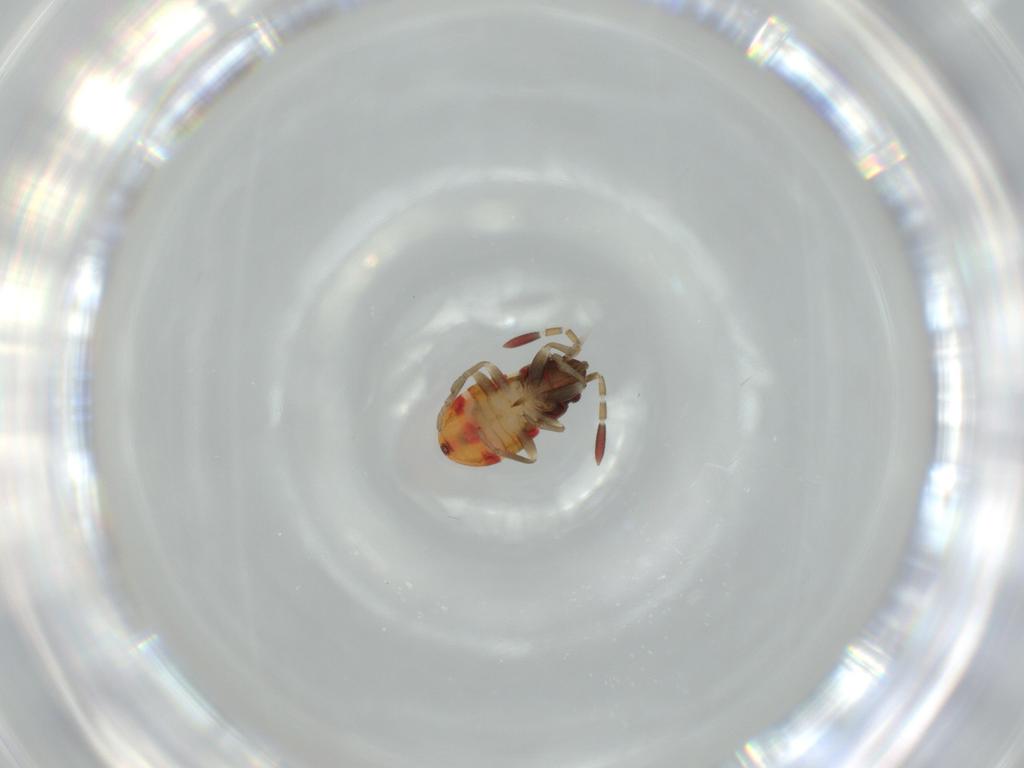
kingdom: Animalia
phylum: Arthropoda
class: Insecta
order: Hemiptera
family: Rhyparochromidae
